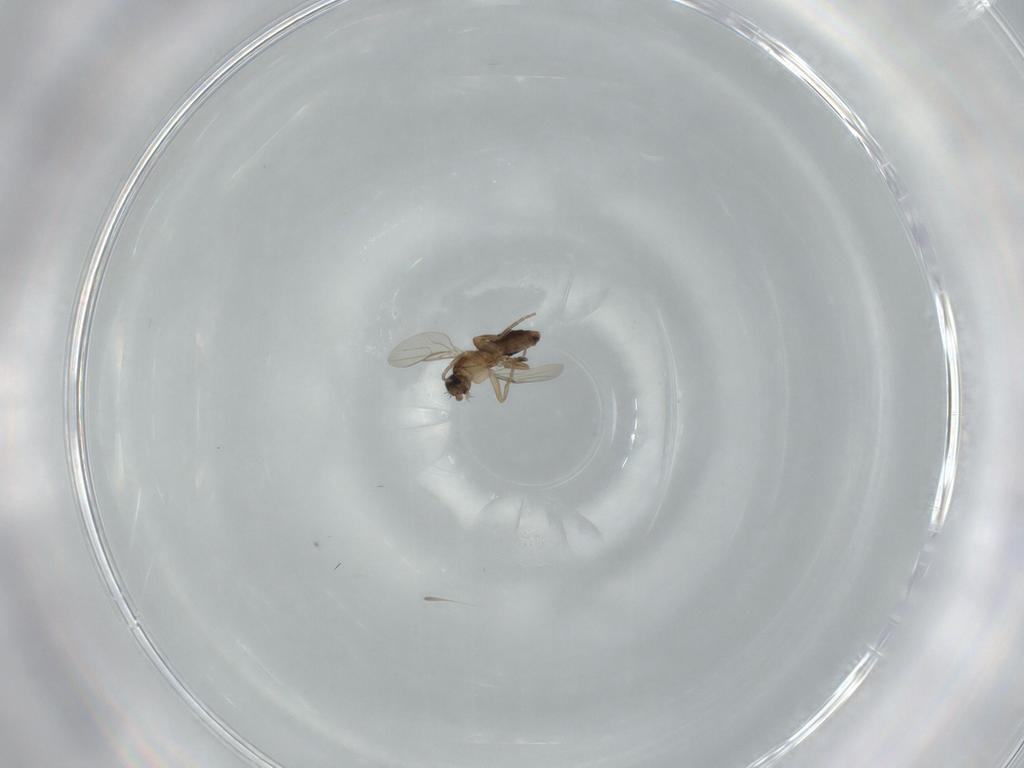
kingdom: Animalia
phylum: Arthropoda
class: Insecta
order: Diptera
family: Phoridae
